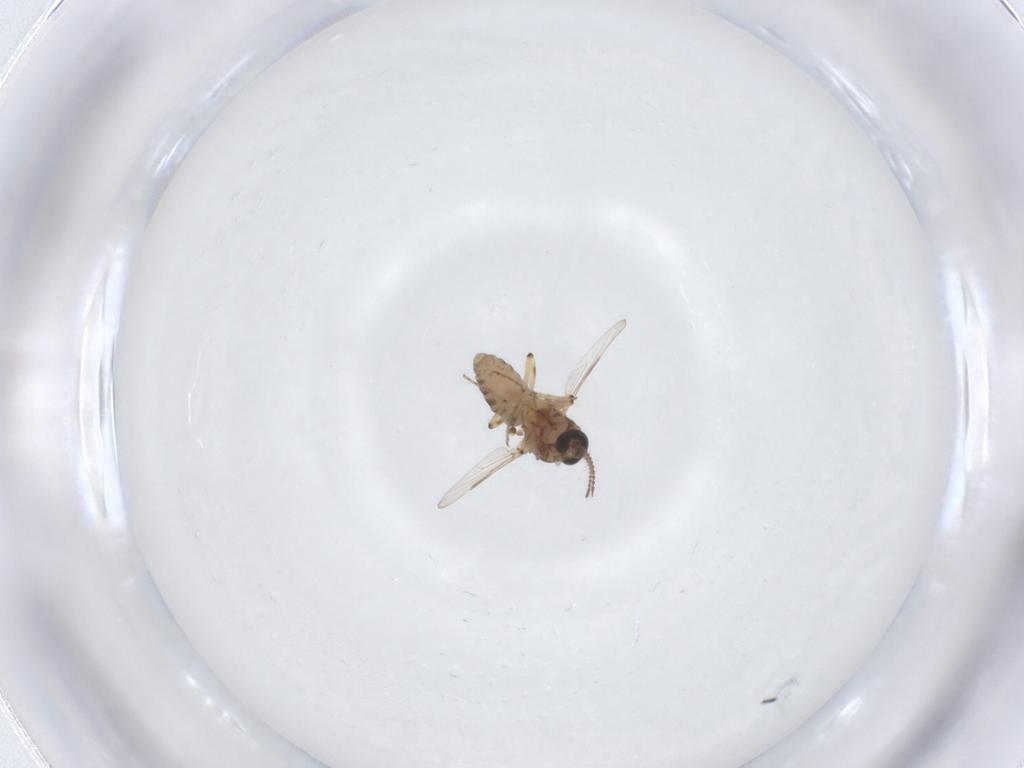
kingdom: Animalia
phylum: Arthropoda
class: Insecta
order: Diptera
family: Ceratopogonidae
